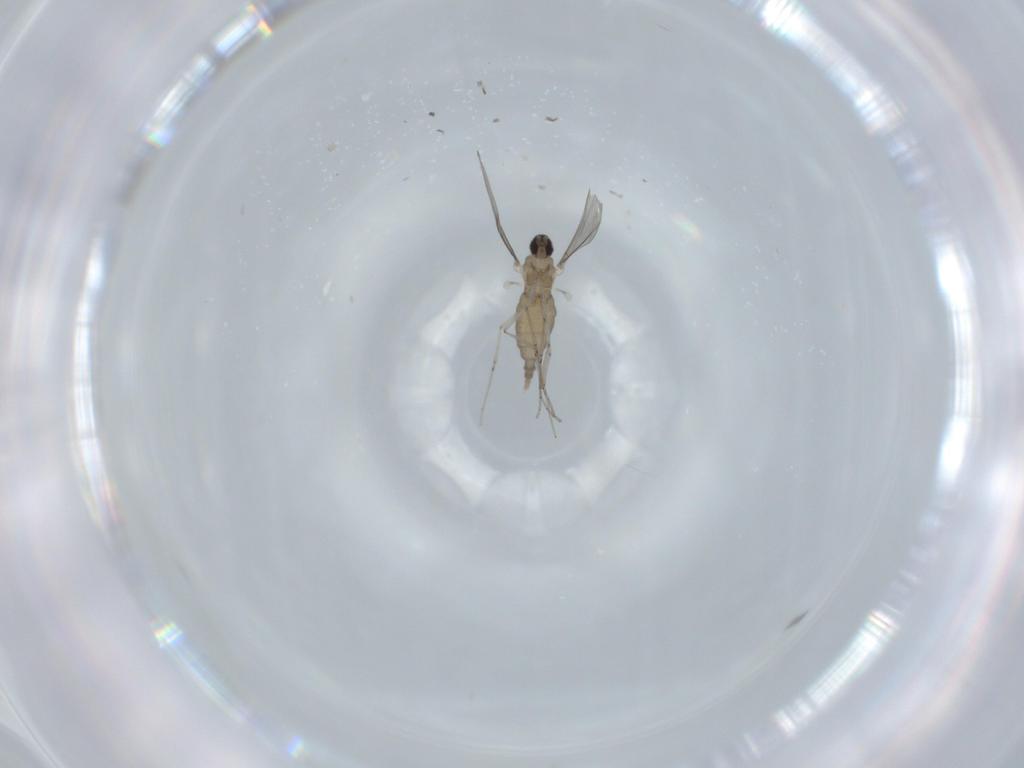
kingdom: Animalia
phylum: Arthropoda
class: Insecta
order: Diptera
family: Cecidomyiidae
